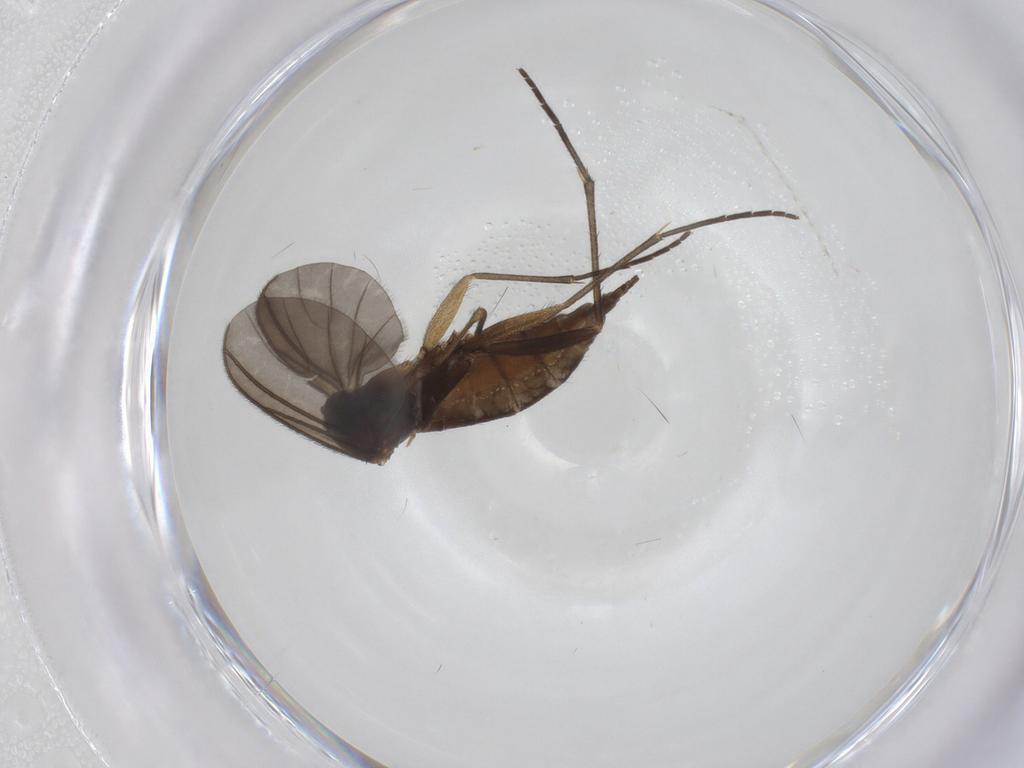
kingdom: Animalia
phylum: Arthropoda
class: Insecta
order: Diptera
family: Sciaridae
